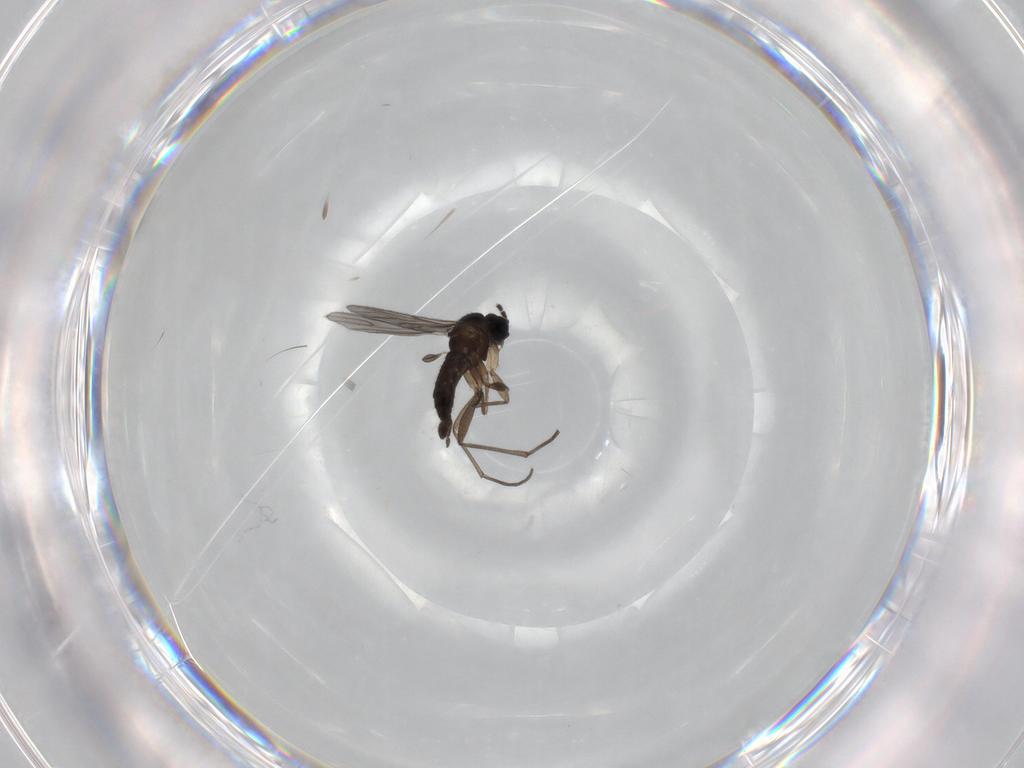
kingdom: Animalia
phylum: Arthropoda
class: Insecta
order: Diptera
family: Sciaridae
